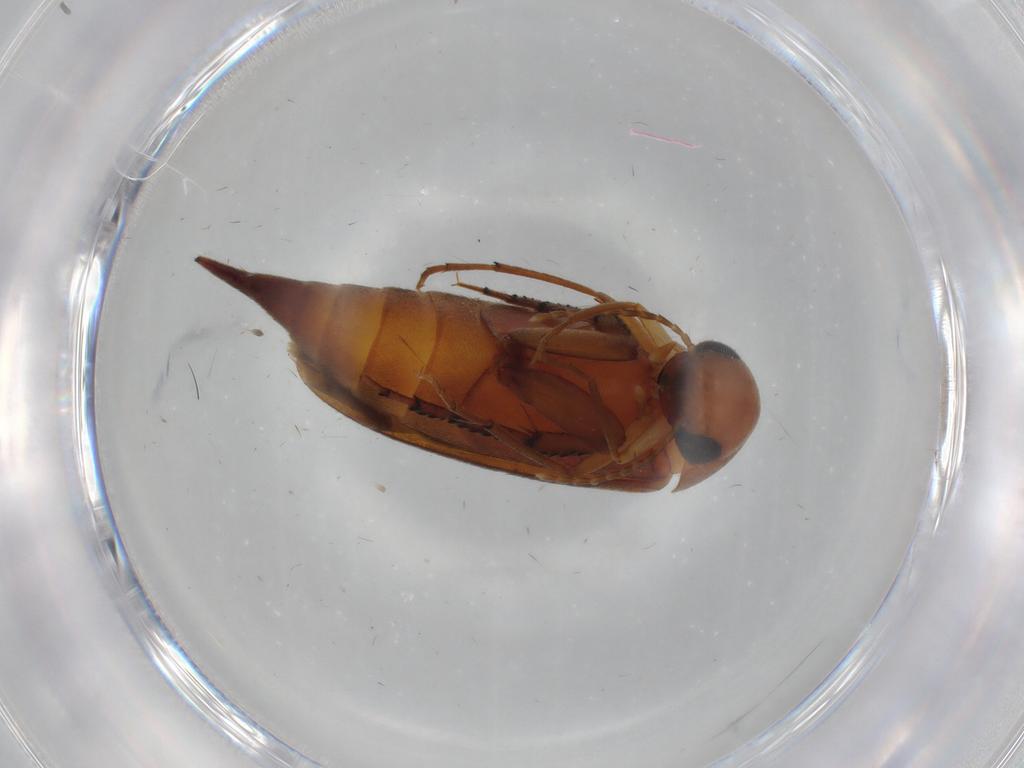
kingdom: Animalia
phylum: Arthropoda
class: Insecta
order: Coleoptera
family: Mordellidae
